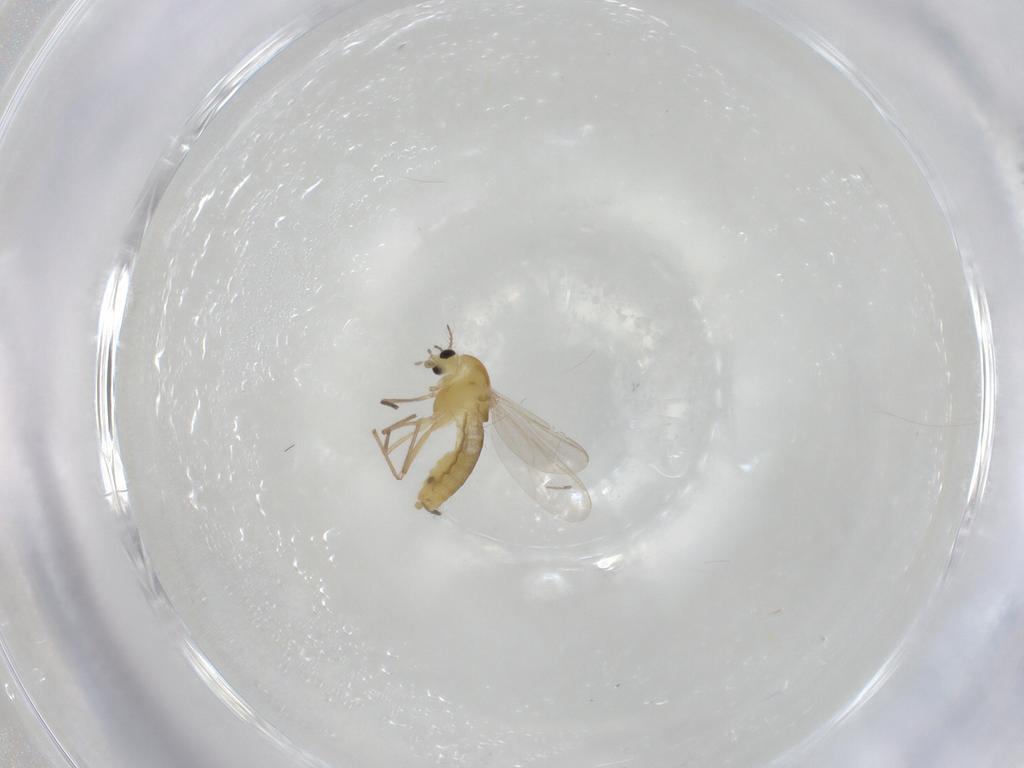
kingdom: Animalia
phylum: Arthropoda
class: Insecta
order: Diptera
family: Chironomidae
